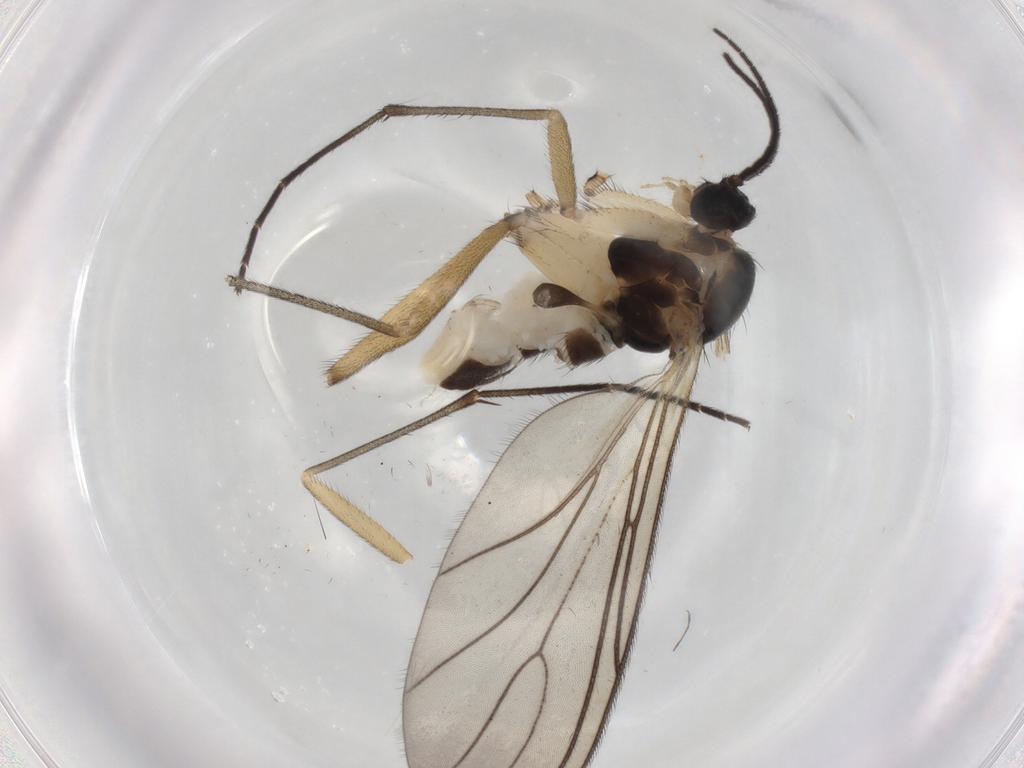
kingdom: Animalia
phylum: Arthropoda
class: Insecta
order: Diptera
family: Sciaridae
